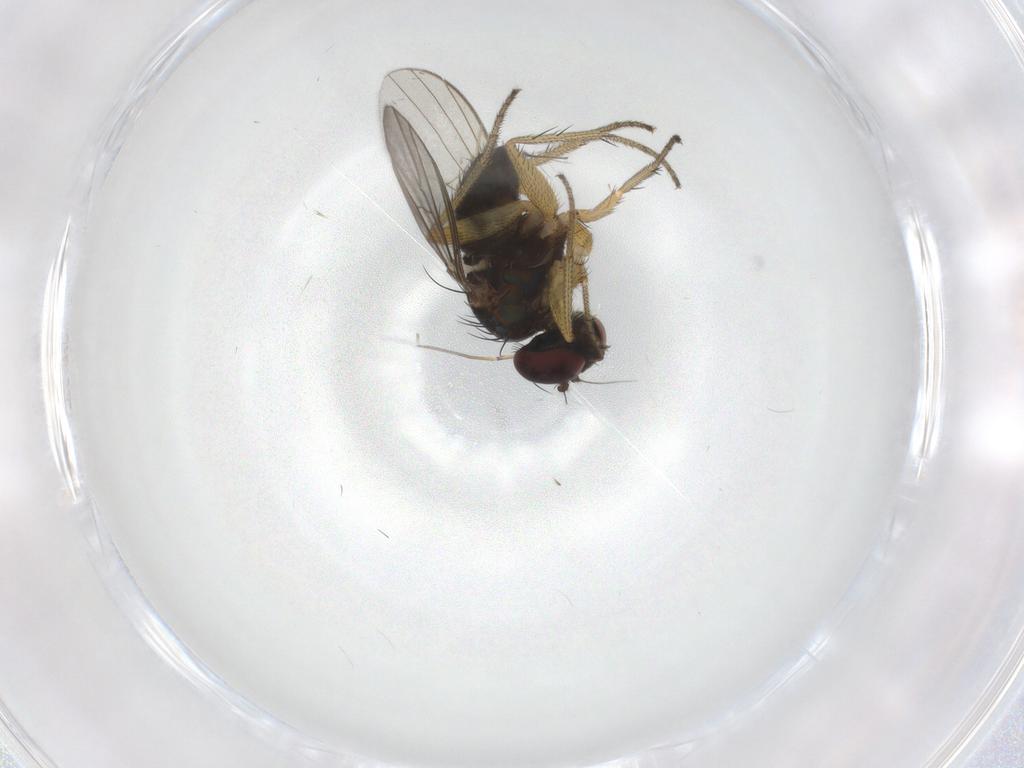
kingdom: Animalia
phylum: Arthropoda
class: Insecta
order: Diptera
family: Chironomidae
